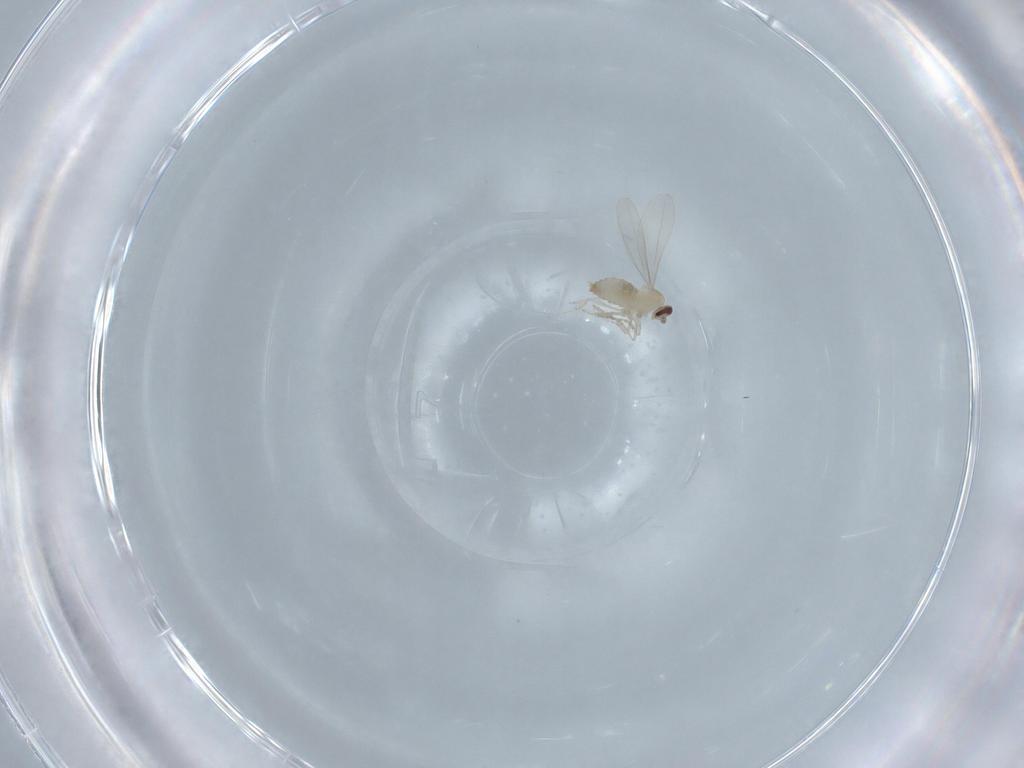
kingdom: Animalia
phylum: Arthropoda
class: Insecta
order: Diptera
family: Cecidomyiidae
